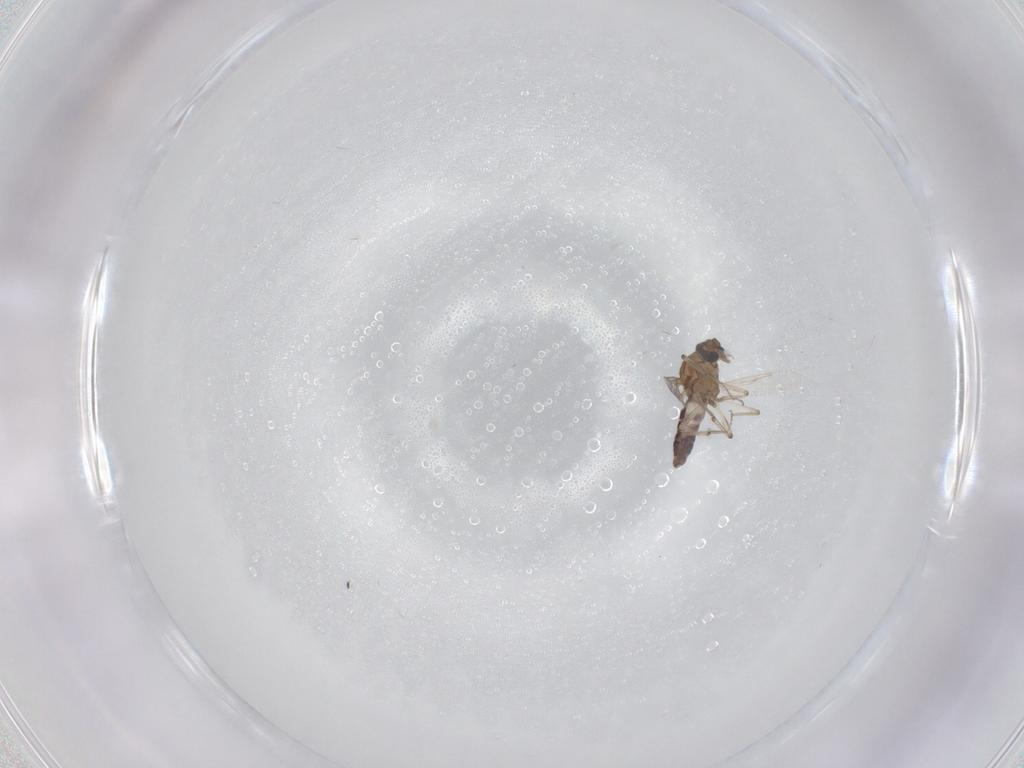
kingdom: Animalia
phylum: Arthropoda
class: Insecta
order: Diptera
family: Ceratopogonidae
